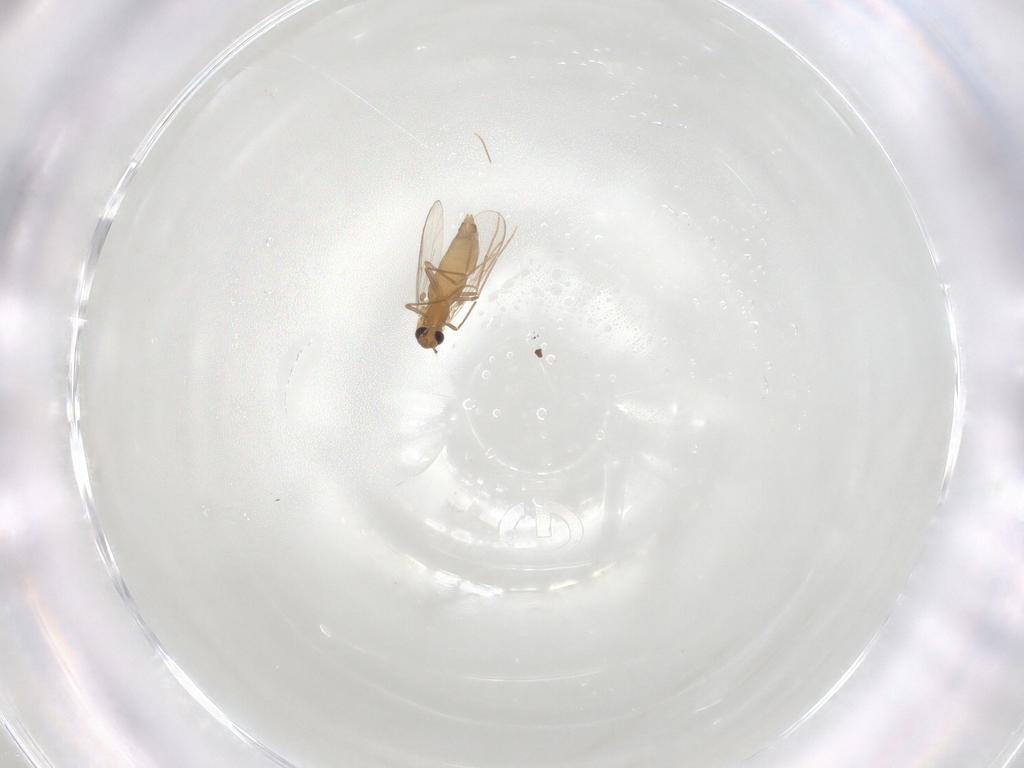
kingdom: Animalia
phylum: Arthropoda
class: Insecta
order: Diptera
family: Chironomidae
